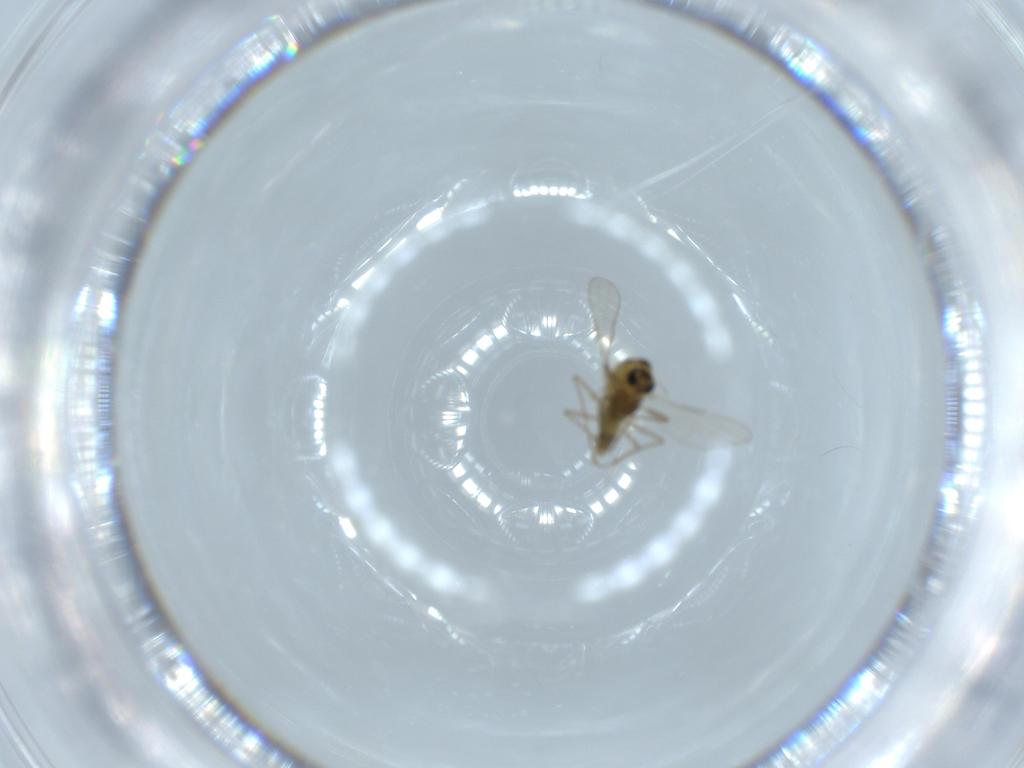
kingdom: Animalia
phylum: Arthropoda
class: Insecta
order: Diptera
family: Chironomidae
